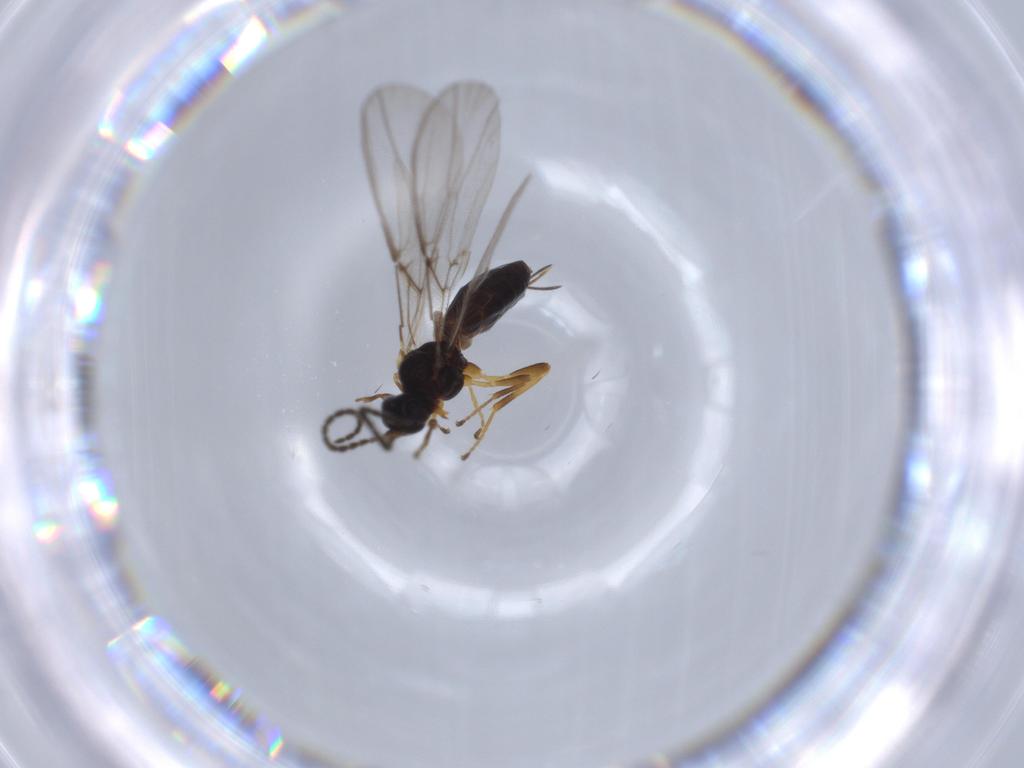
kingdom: Animalia
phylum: Arthropoda
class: Insecta
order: Hymenoptera
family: Braconidae
